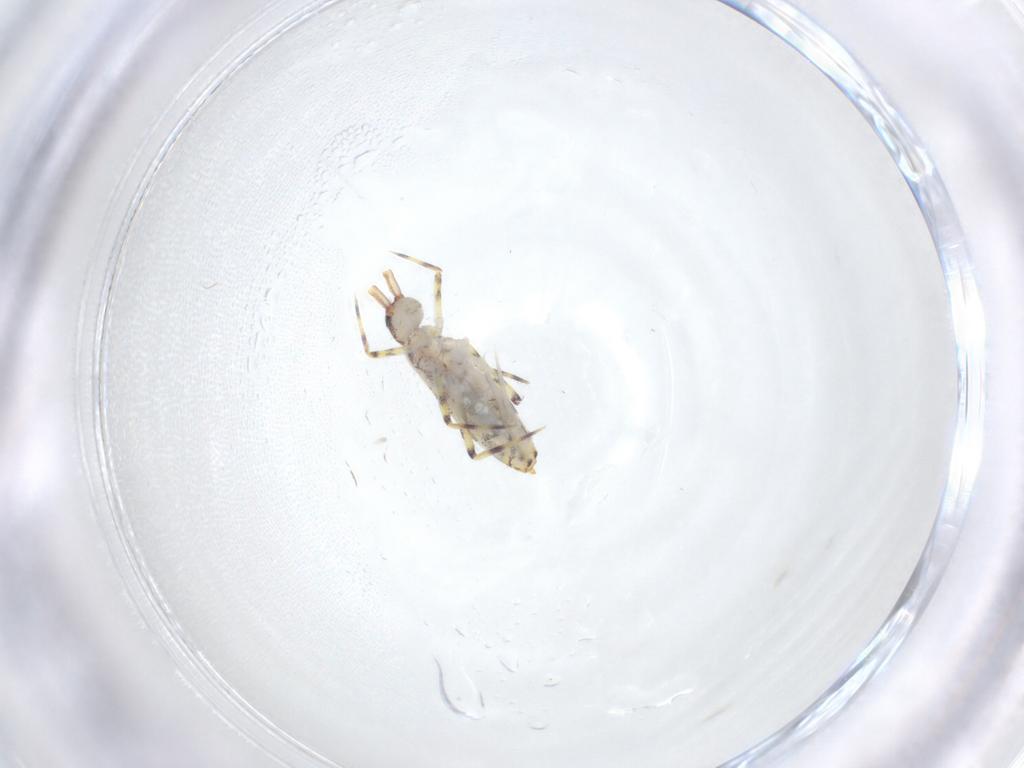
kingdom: Animalia
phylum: Arthropoda
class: Collembola
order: Entomobryomorpha
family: Entomobryidae
